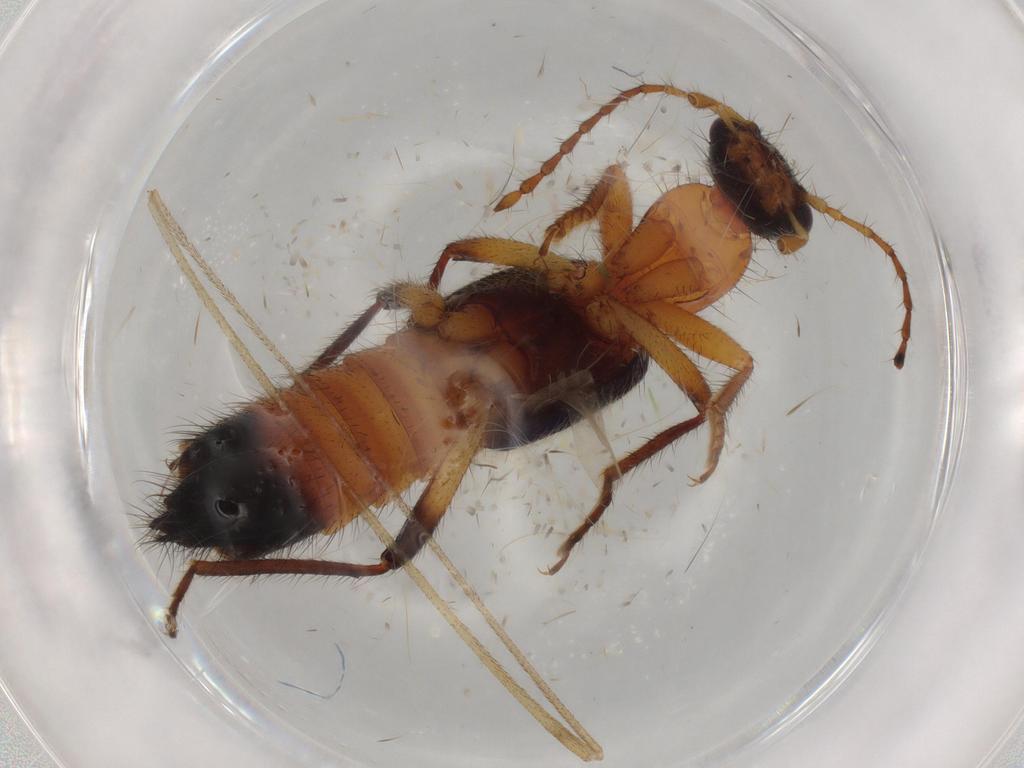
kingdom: Animalia
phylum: Arthropoda
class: Insecta
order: Coleoptera
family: Staphylinidae
